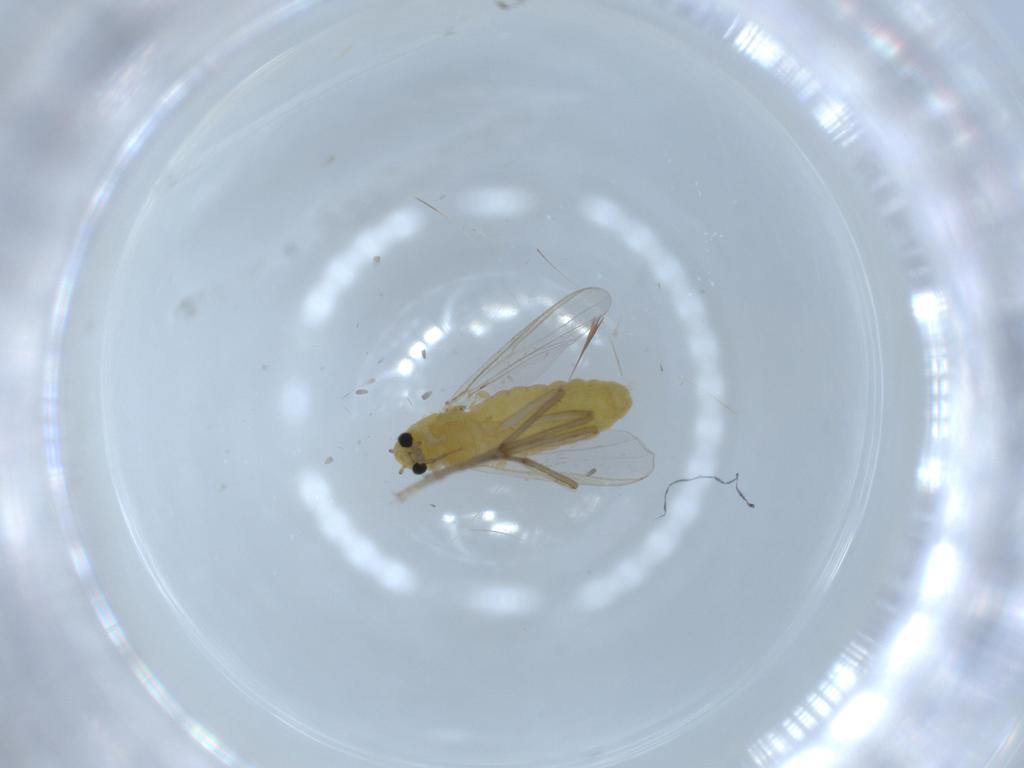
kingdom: Animalia
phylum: Arthropoda
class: Insecta
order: Diptera
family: Chironomidae
